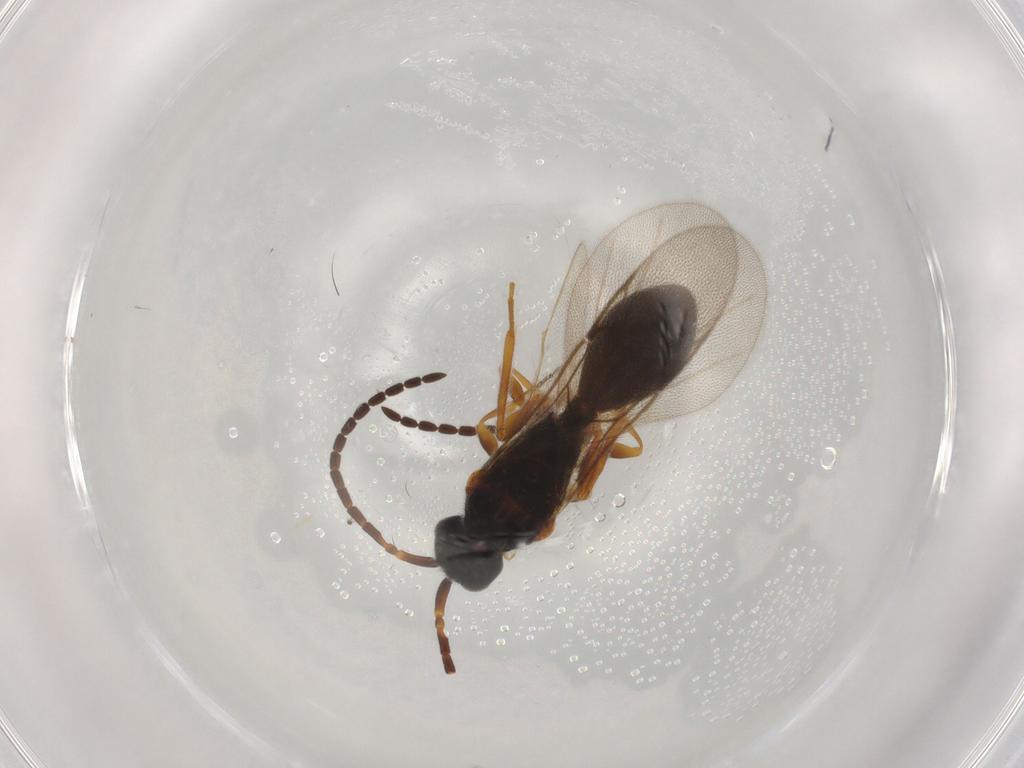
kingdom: Animalia
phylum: Arthropoda
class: Insecta
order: Hymenoptera
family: Diapriidae
